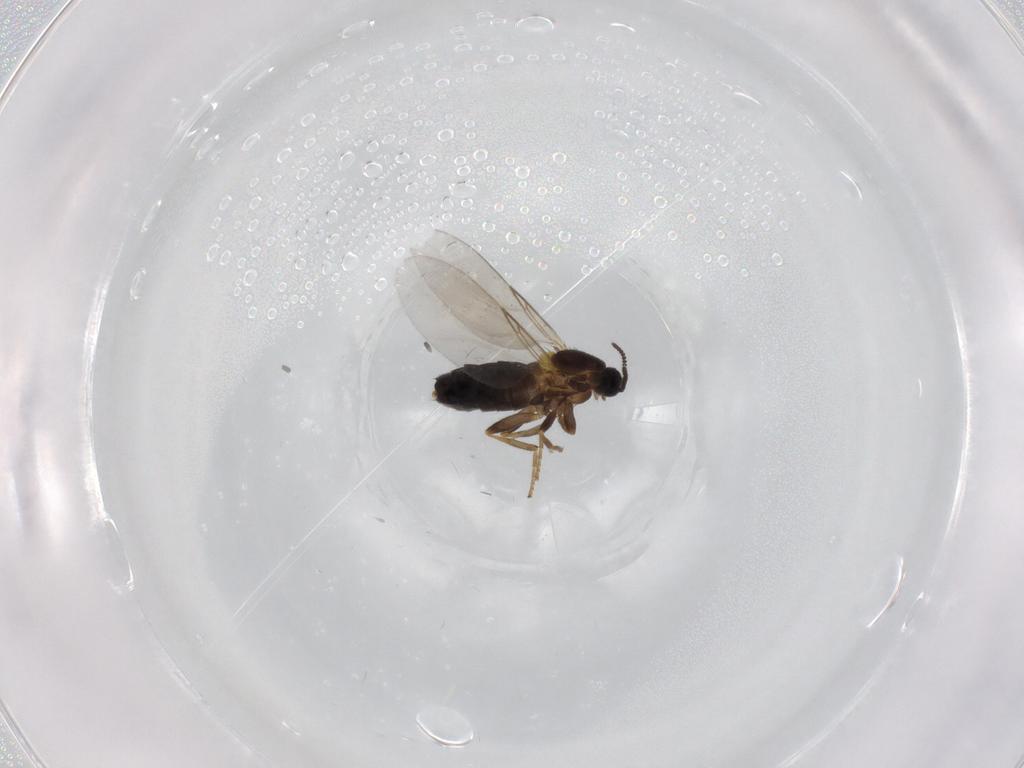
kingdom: Animalia
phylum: Arthropoda
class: Insecta
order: Diptera
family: Scatopsidae
